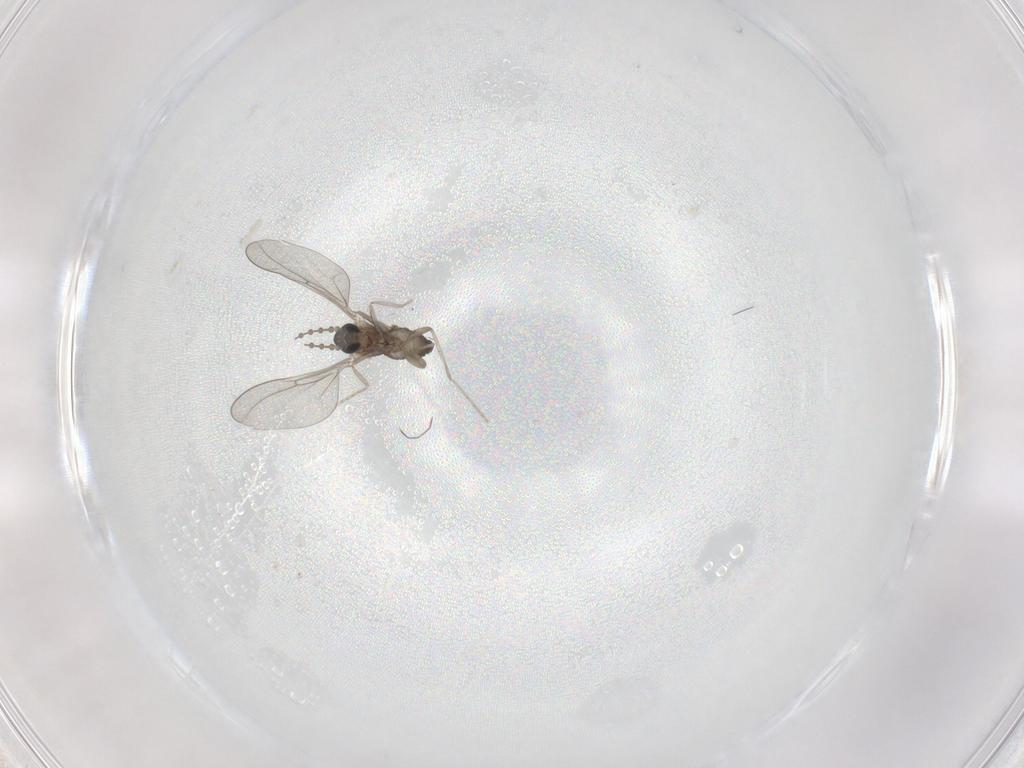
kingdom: Animalia
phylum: Arthropoda
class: Insecta
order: Diptera
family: Cecidomyiidae
